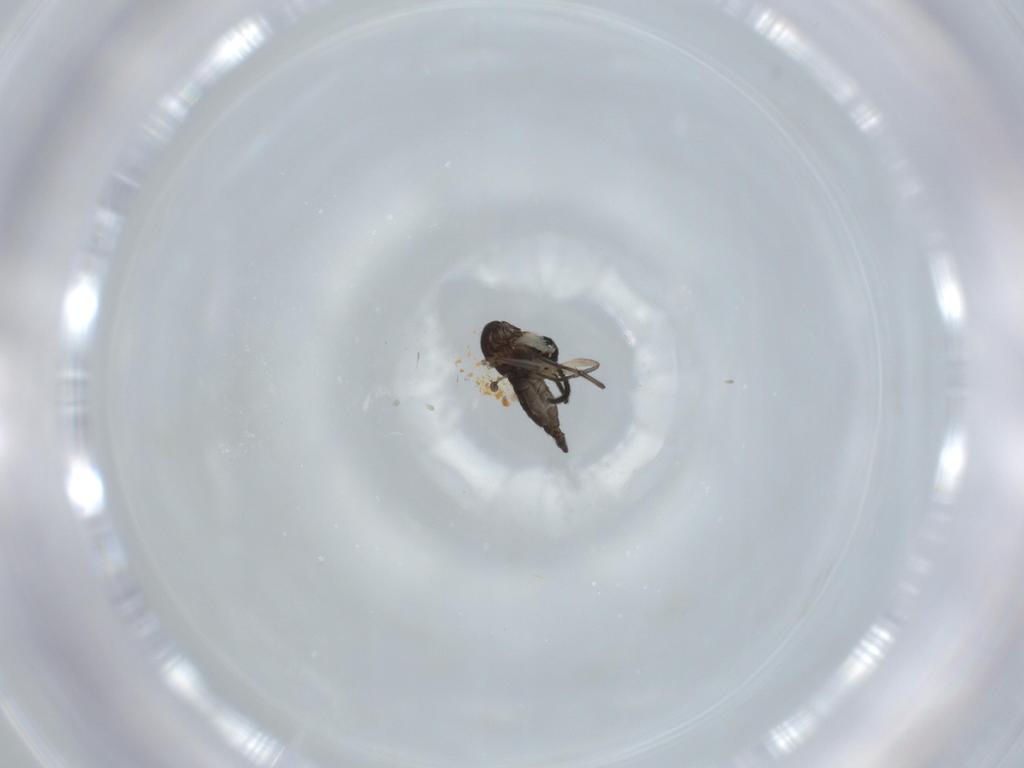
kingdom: Animalia
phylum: Arthropoda
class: Insecta
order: Diptera
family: Sciaridae
